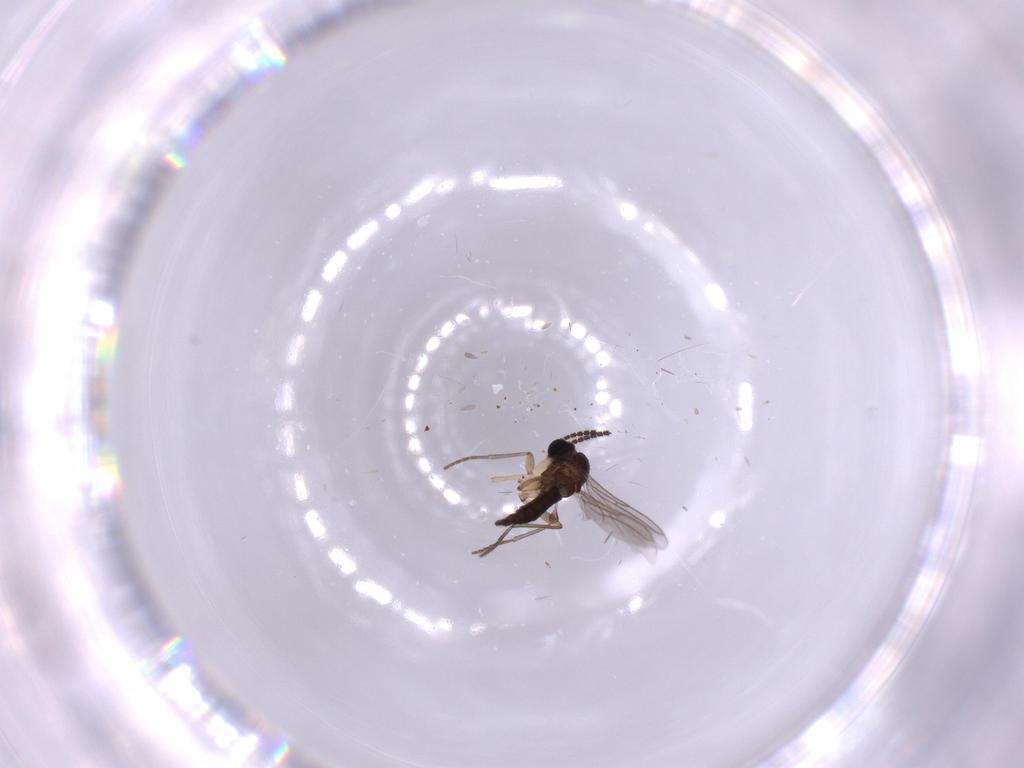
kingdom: Animalia
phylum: Arthropoda
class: Insecta
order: Diptera
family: Sciaridae
